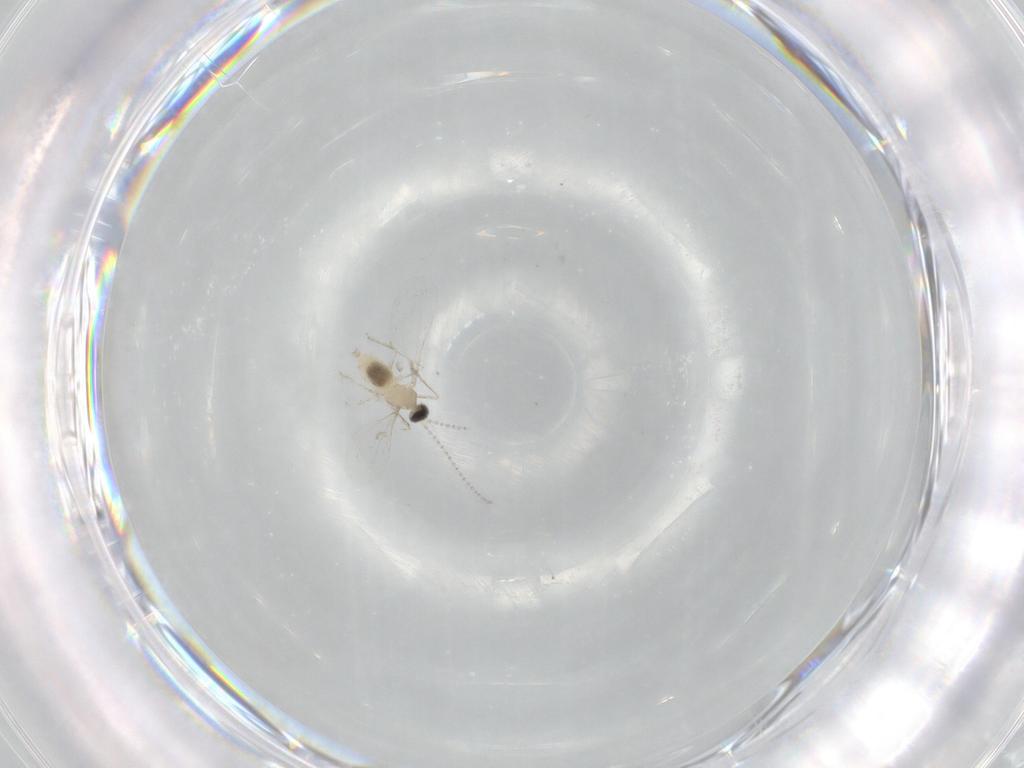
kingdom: Animalia
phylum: Arthropoda
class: Insecta
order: Diptera
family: Cecidomyiidae
